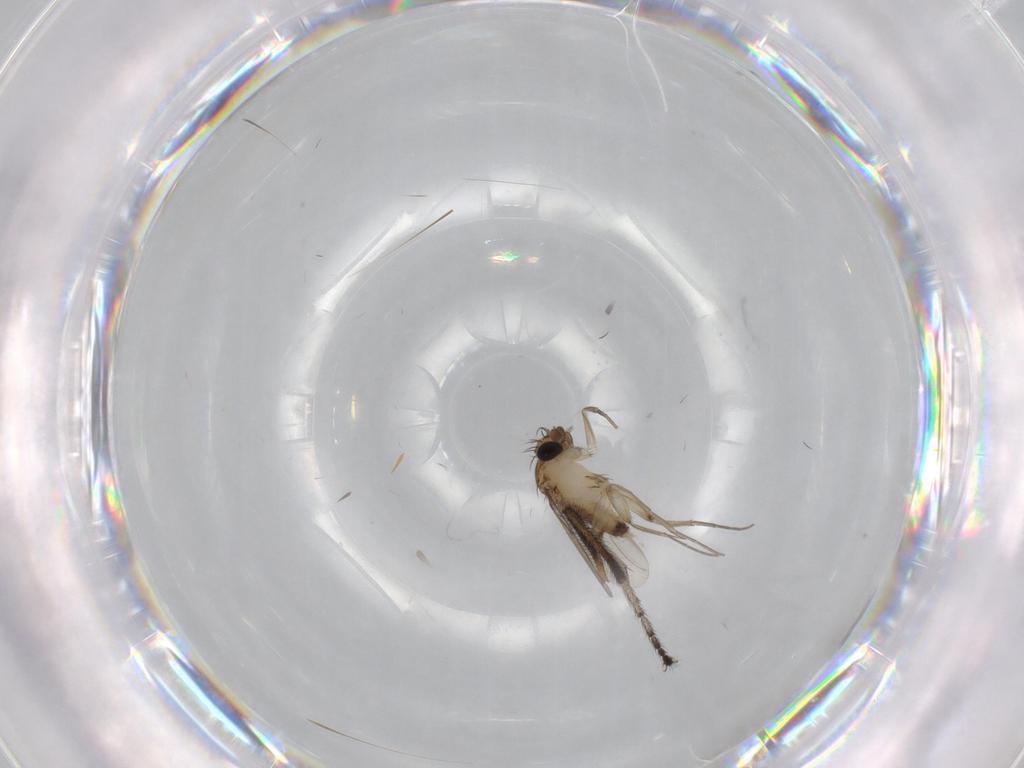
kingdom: Animalia
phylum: Arthropoda
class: Insecta
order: Diptera
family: Phoridae
